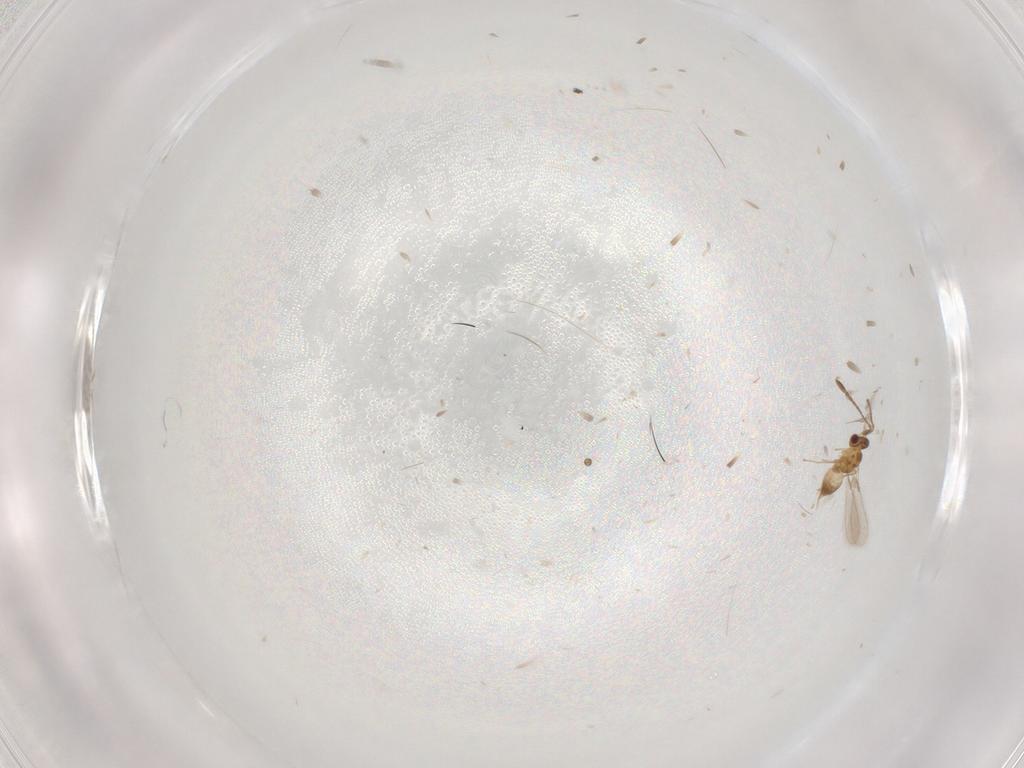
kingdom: Animalia
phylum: Arthropoda
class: Insecta
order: Hymenoptera
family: Mymaridae
